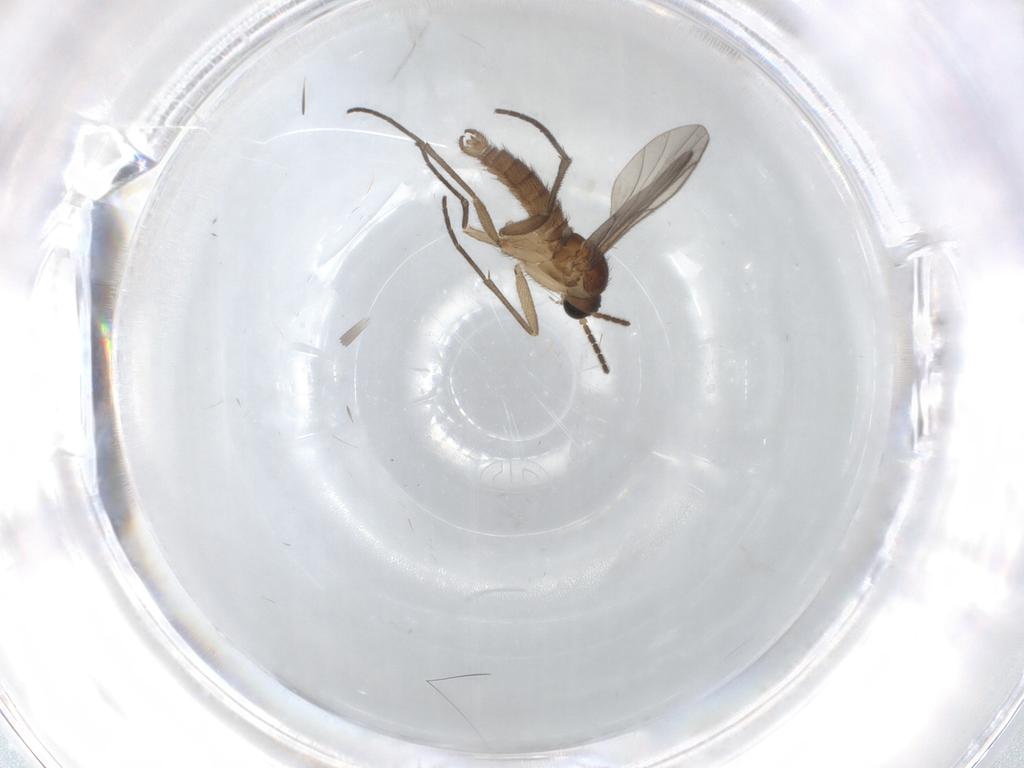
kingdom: Animalia
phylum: Arthropoda
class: Insecta
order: Diptera
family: Sciaridae
